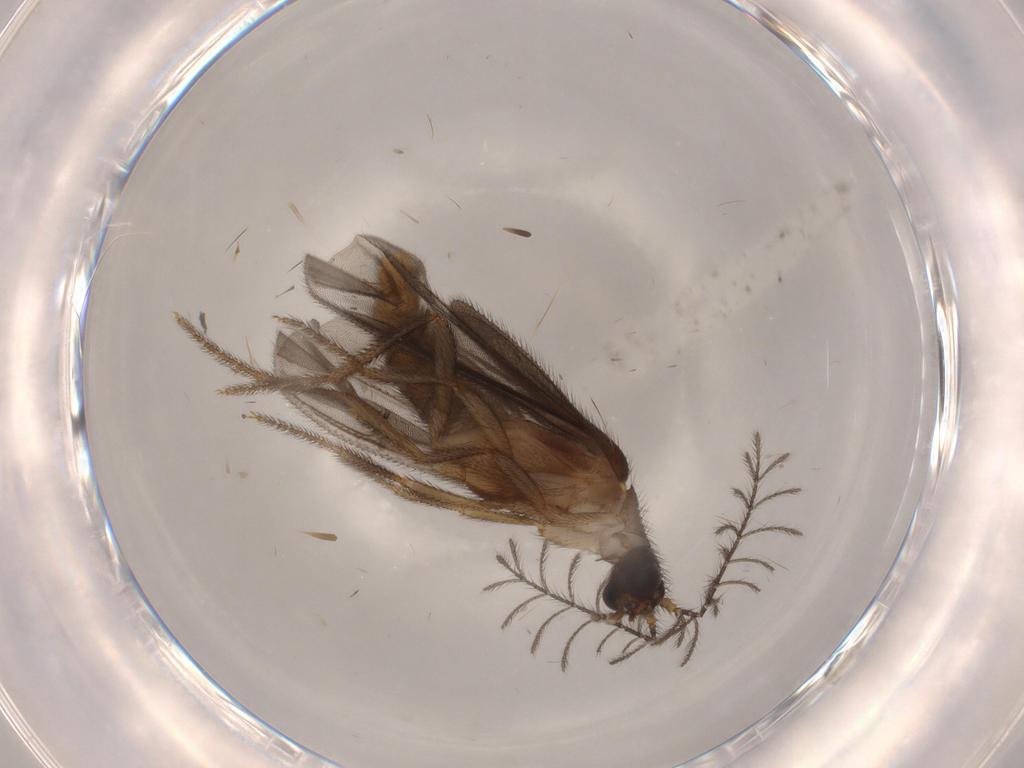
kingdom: Animalia
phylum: Arthropoda
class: Insecta
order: Coleoptera
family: Phengodidae
